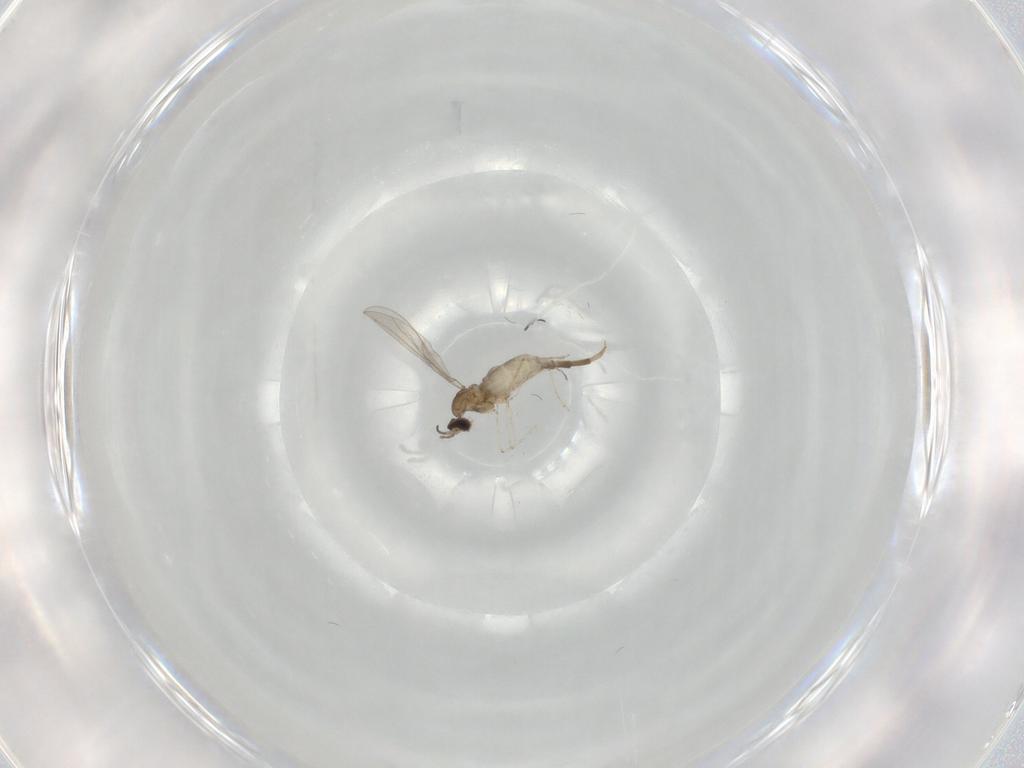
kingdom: Animalia
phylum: Arthropoda
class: Insecta
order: Diptera
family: Cecidomyiidae
